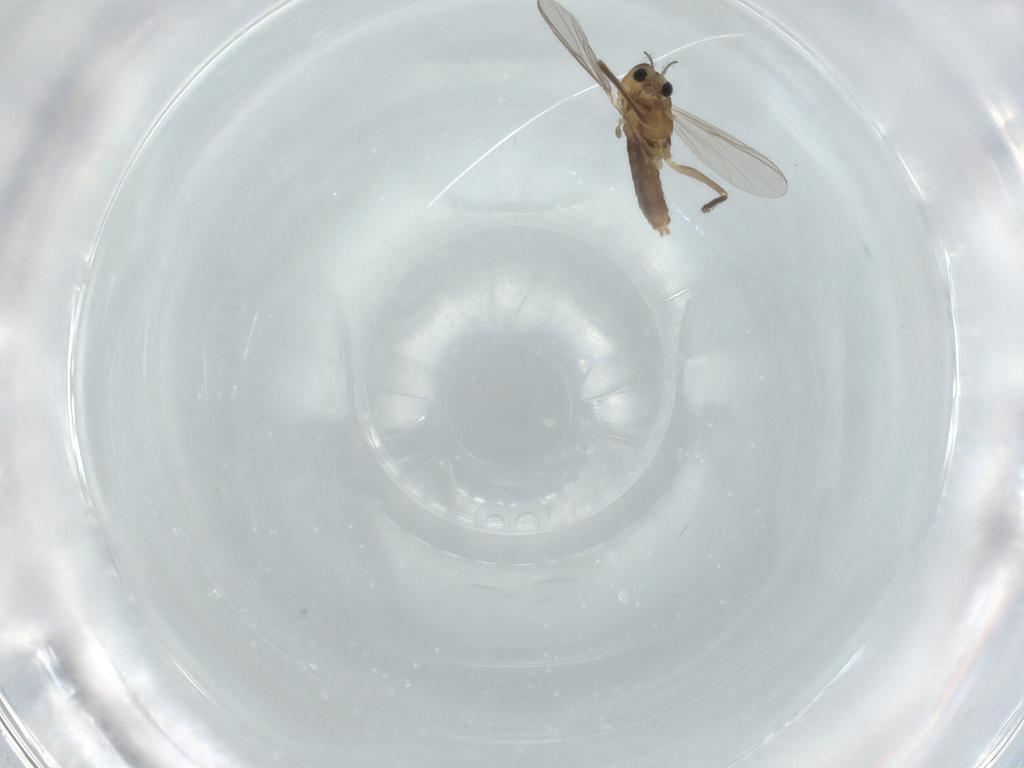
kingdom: Animalia
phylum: Arthropoda
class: Insecta
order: Diptera
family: Chironomidae
